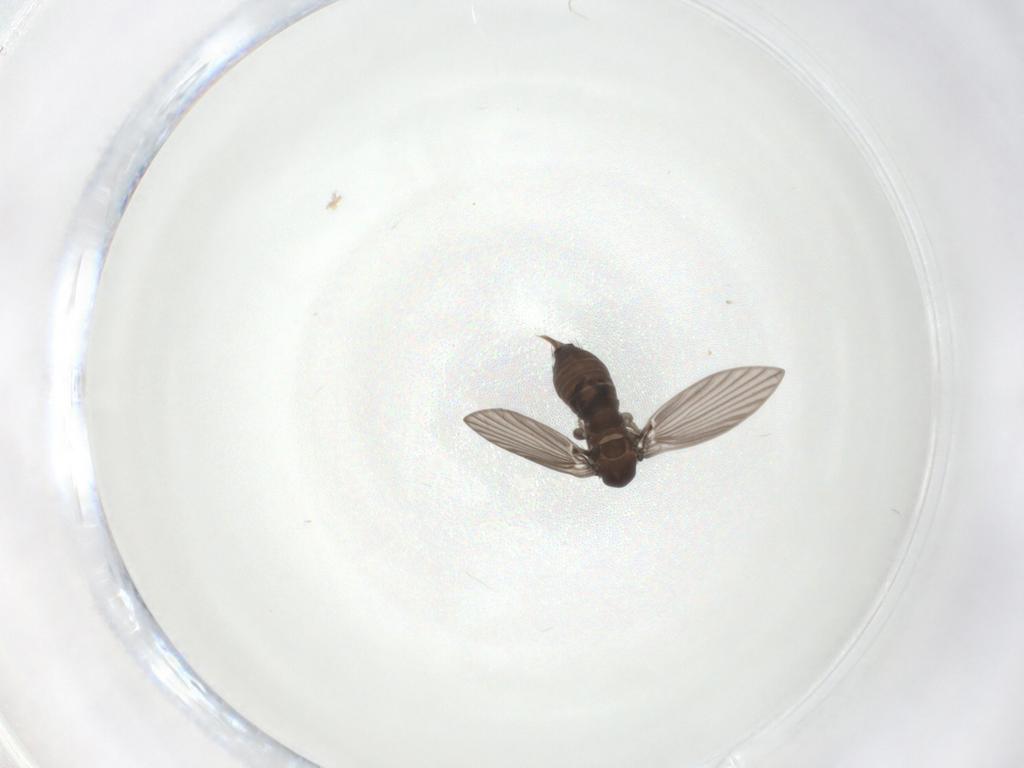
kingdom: Animalia
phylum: Arthropoda
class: Insecta
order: Diptera
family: Psychodidae
